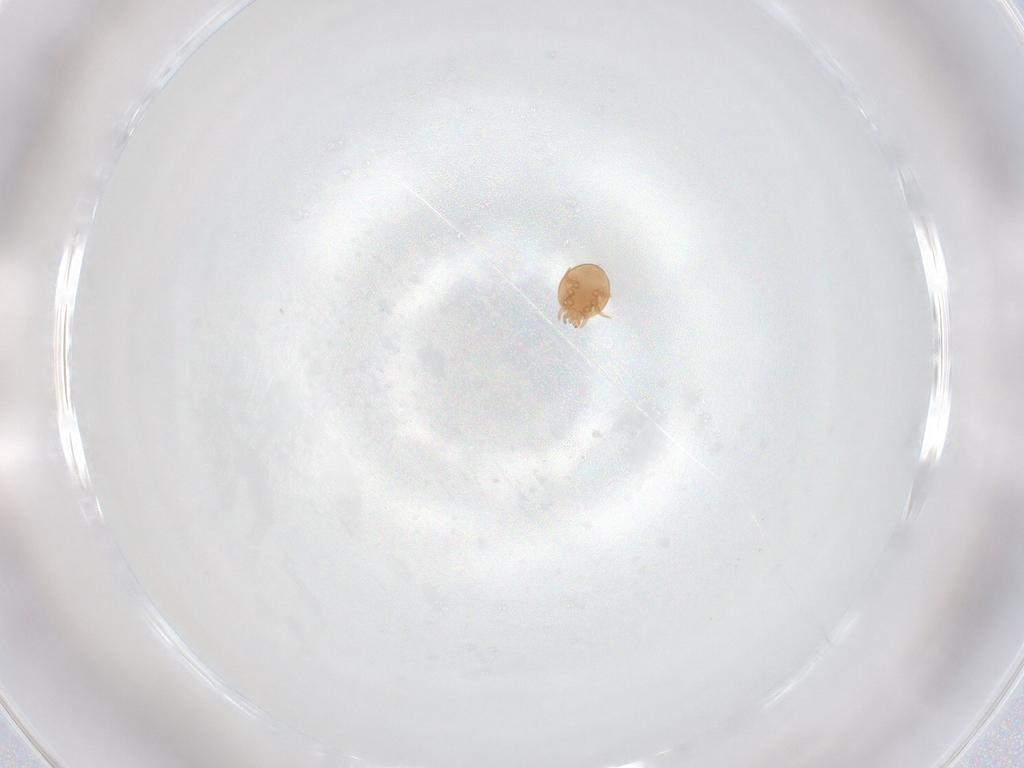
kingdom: Animalia
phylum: Arthropoda
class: Arachnida
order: Mesostigmata
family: Trematuridae
